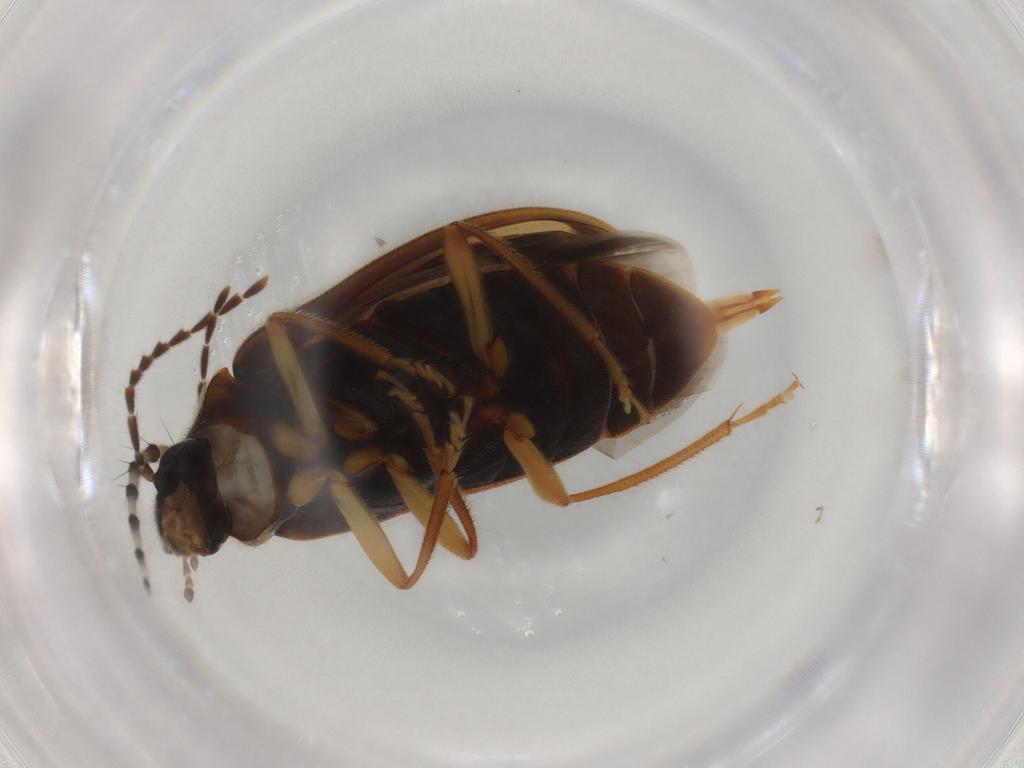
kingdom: Animalia
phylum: Arthropoda
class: Insecta
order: Coleoptera
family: Ptilodactylidae
